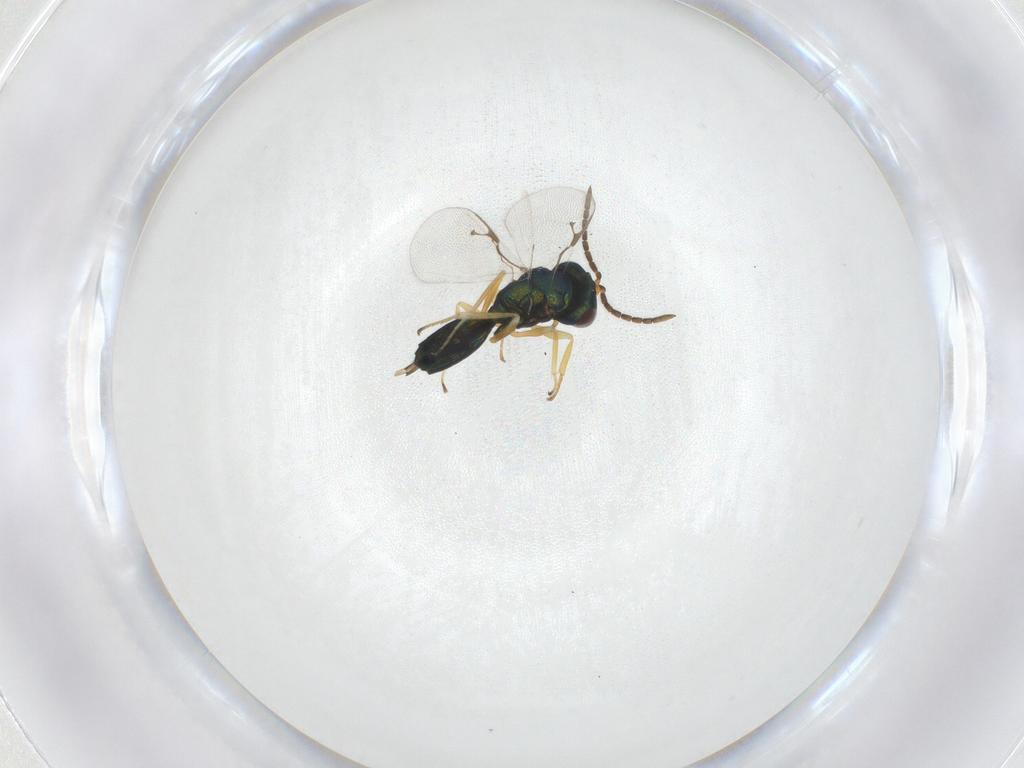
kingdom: Animalia
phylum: Arthropoda
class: Insecta
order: Hymenoptera
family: Pteromalidae
